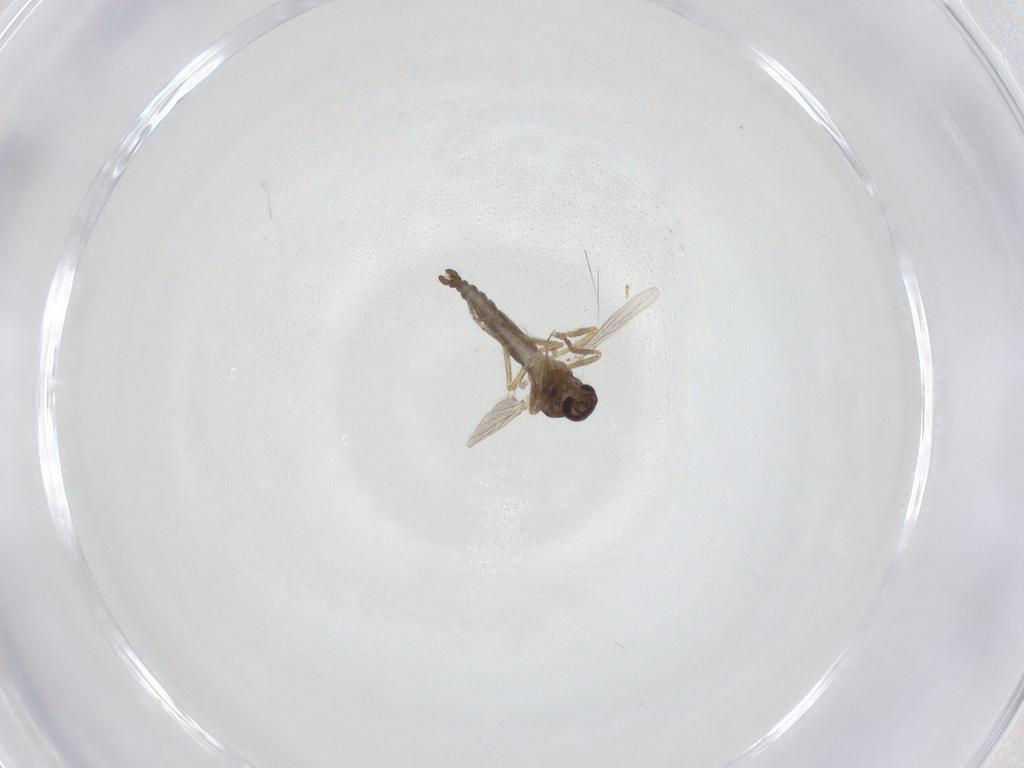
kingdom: Animalia
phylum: Arthropoda
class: Insecta
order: Diptera
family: Ceratopogonidae
